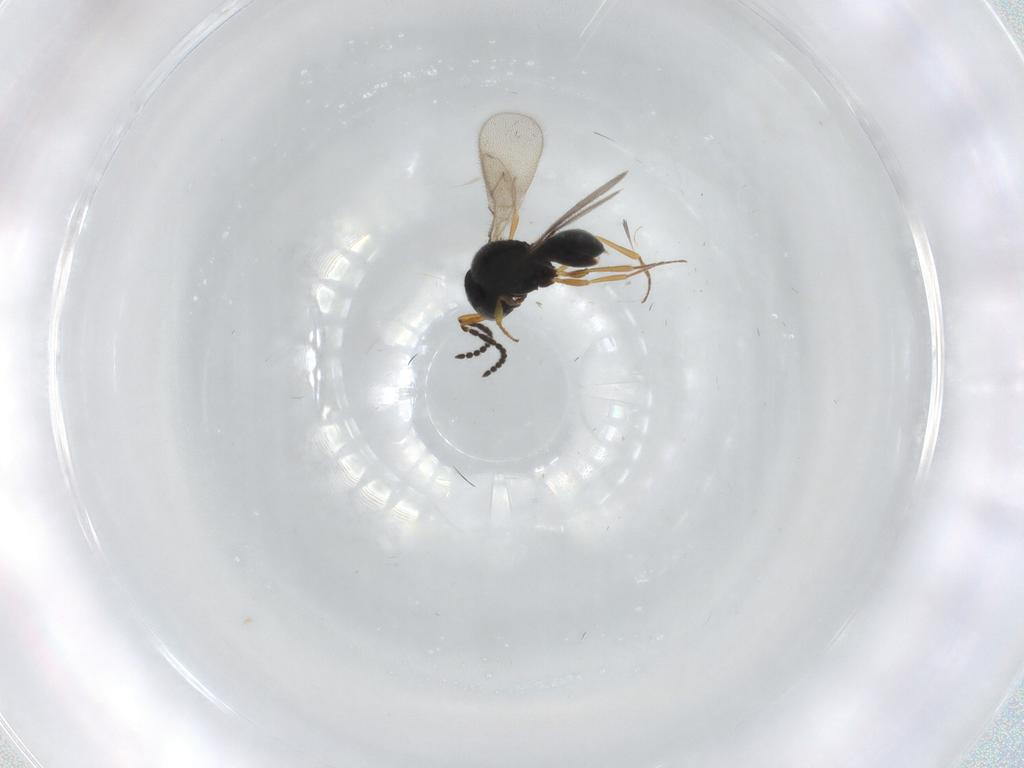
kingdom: Animalia
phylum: Arthropoda
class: Insecta
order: Hymenoptera
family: Scelionidae
